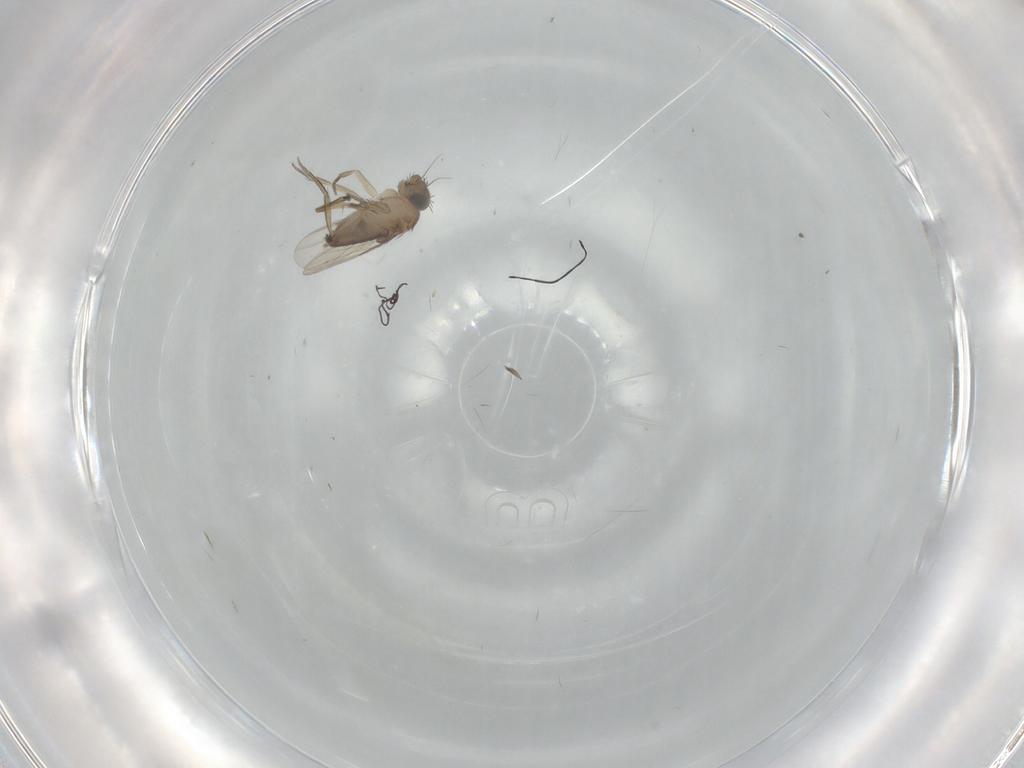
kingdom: Animalia
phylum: Arthropoda
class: Insecta
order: Diptera
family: Phoridae
